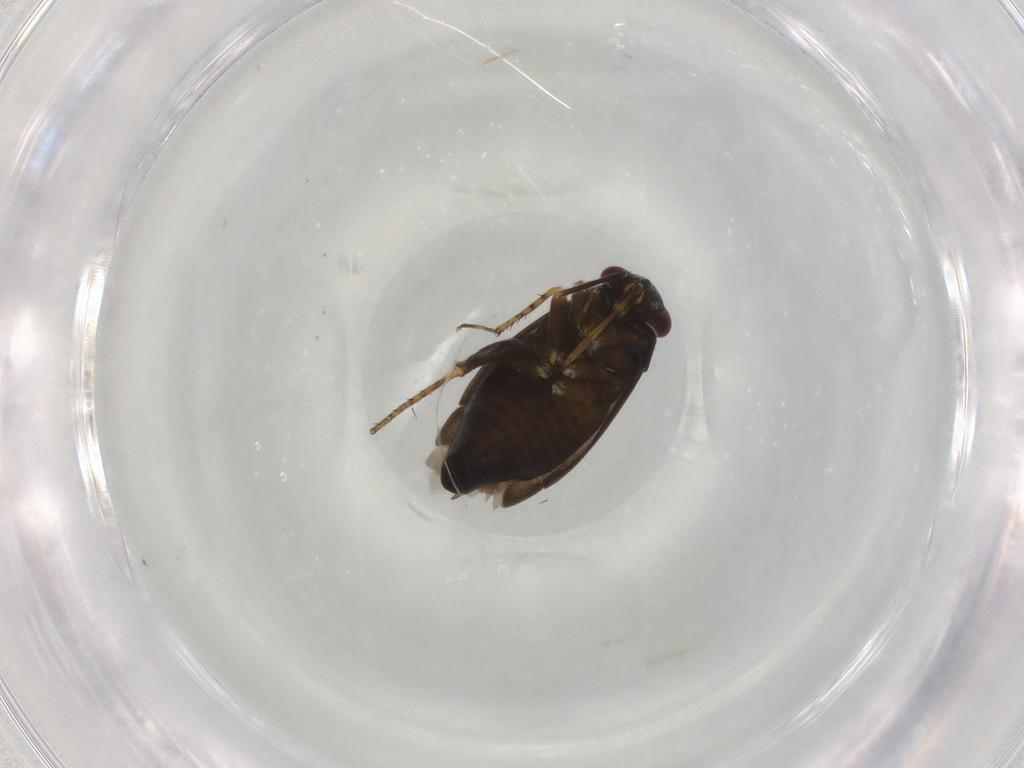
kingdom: Animalia
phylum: Arthropoda
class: Insecta
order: Hemiptera
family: Miridae
